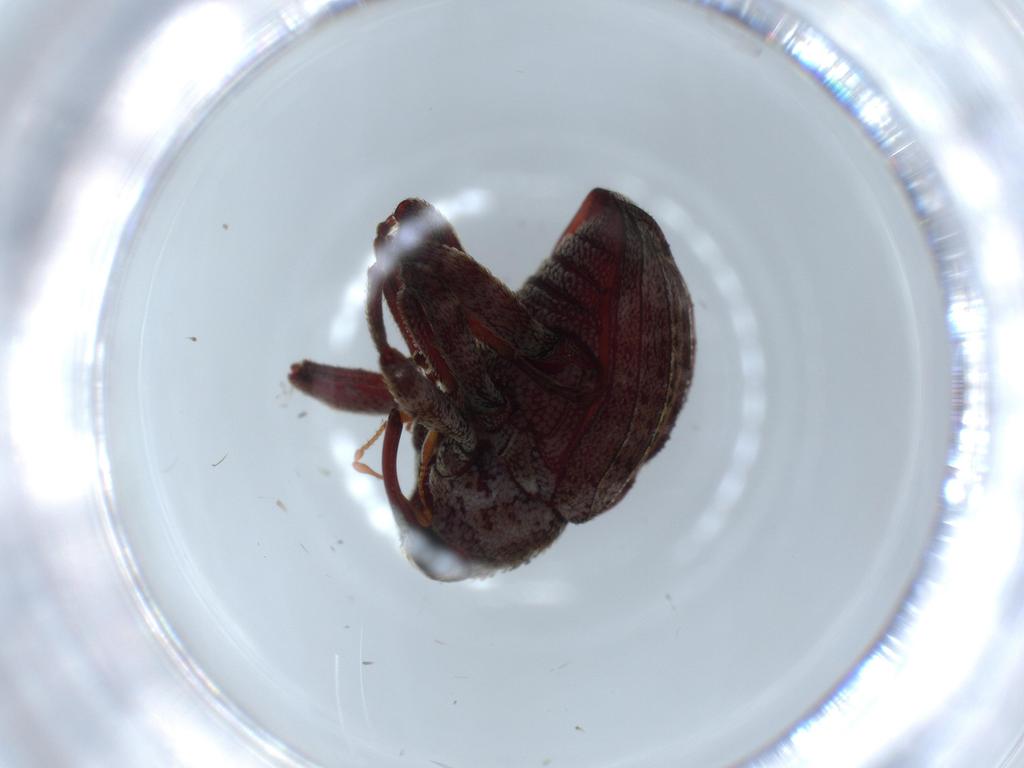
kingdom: Animalia
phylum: Arthropoda
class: Insecta
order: Coleoptera
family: Curculionidae
